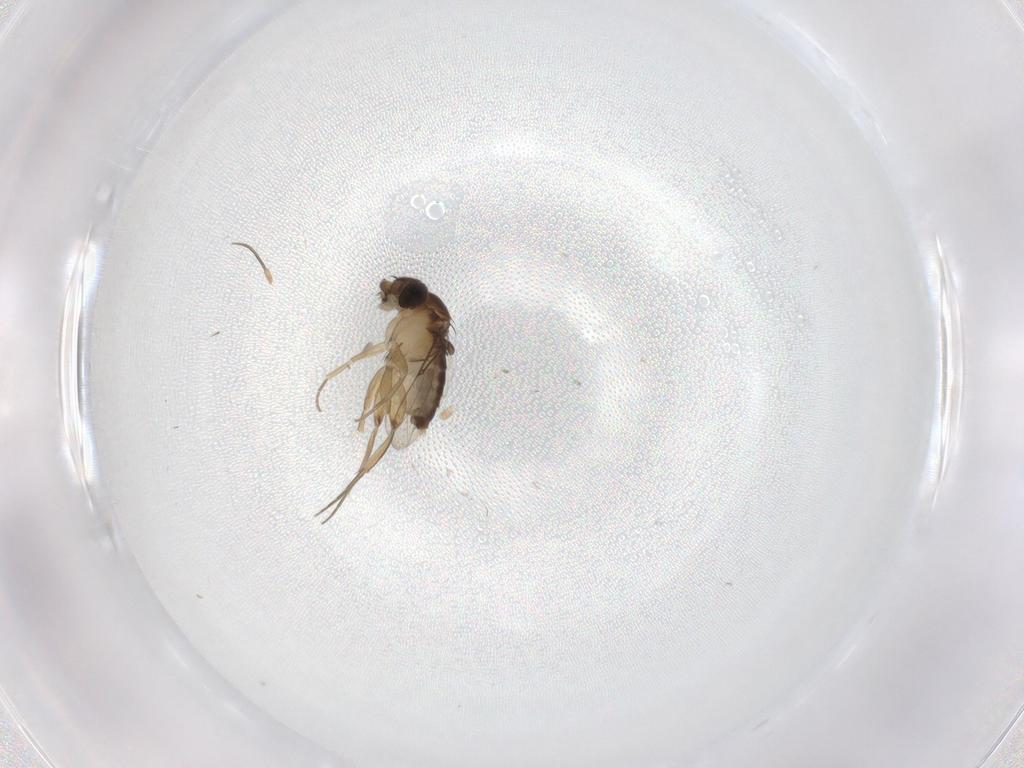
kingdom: Animalia
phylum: Arthropoda
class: Insecta
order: Diptera
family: Phoridae
